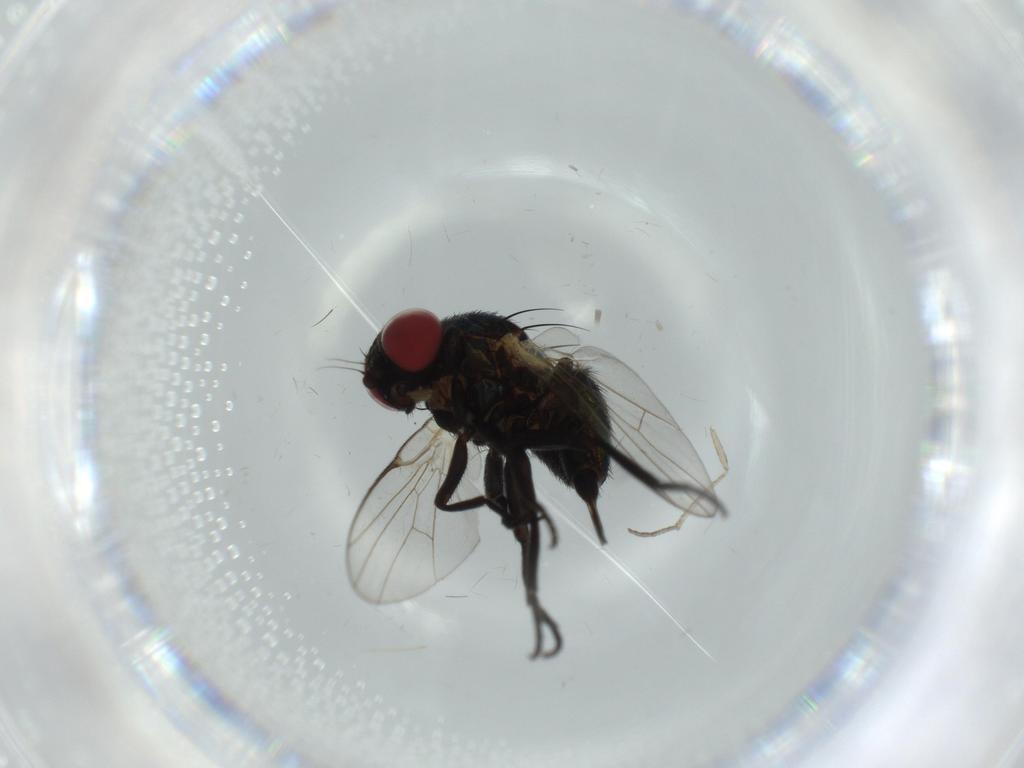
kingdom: Animalia
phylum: Arthropoda
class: Insecta
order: Diptera
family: Agromyzidae
